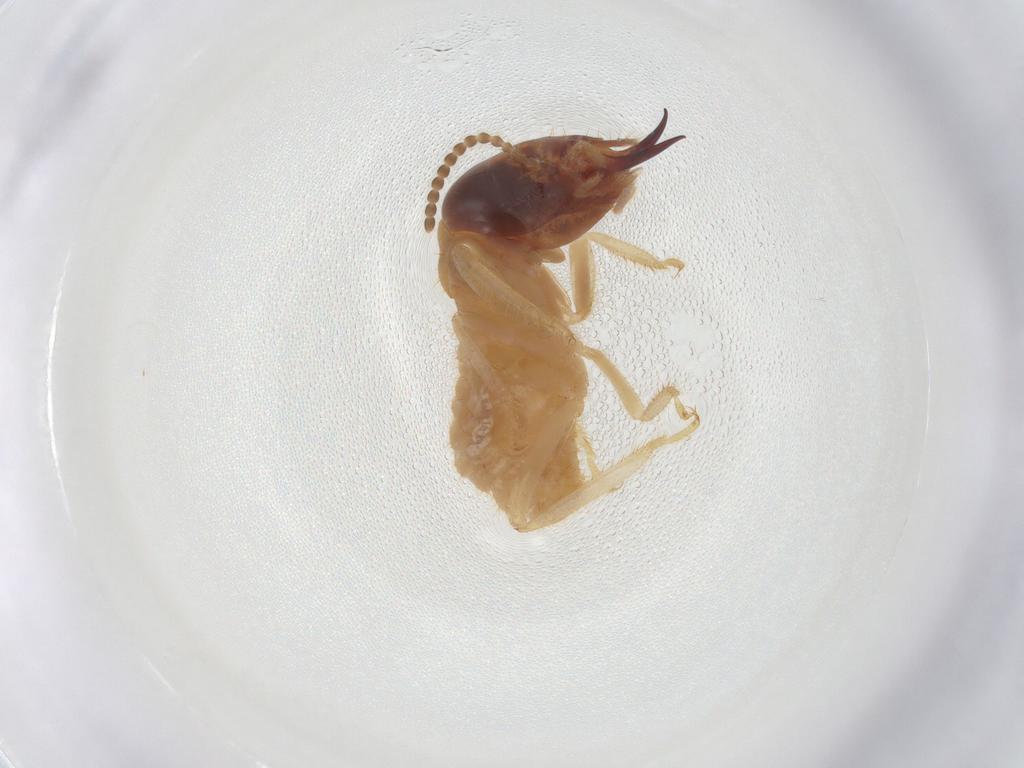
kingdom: Animalia
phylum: Arthropoda
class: Insecta
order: Blattodea
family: Termitidae
